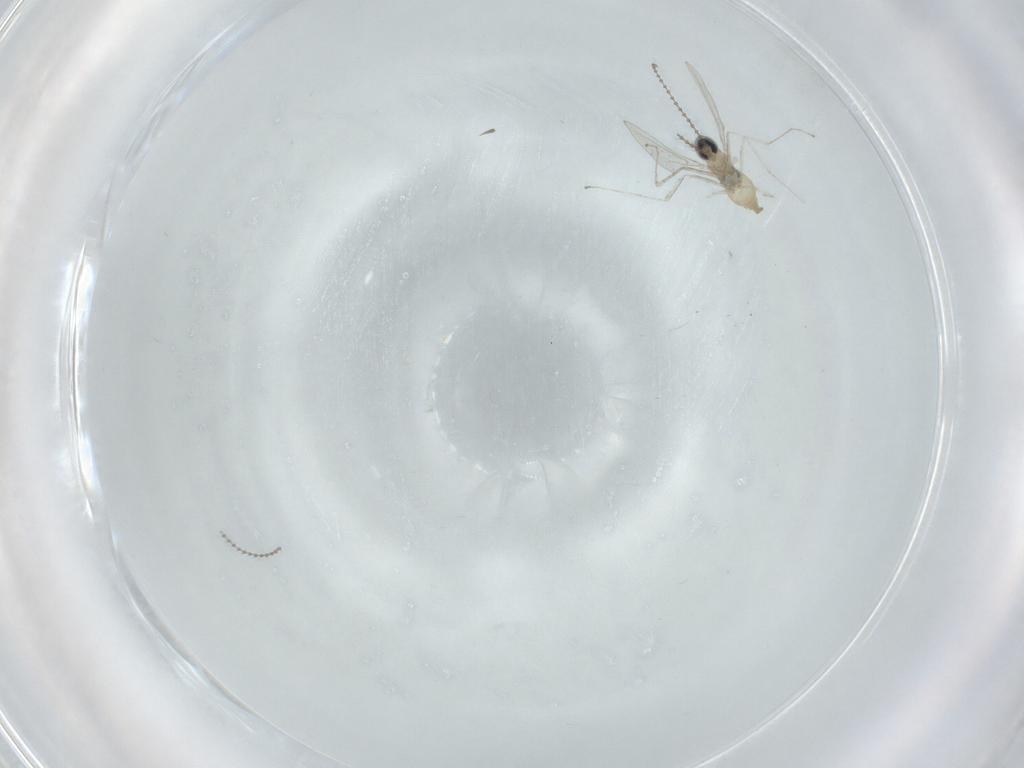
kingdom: Animalia
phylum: Arthropoda
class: Insecta
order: Diptera
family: Cecidomyiidae
